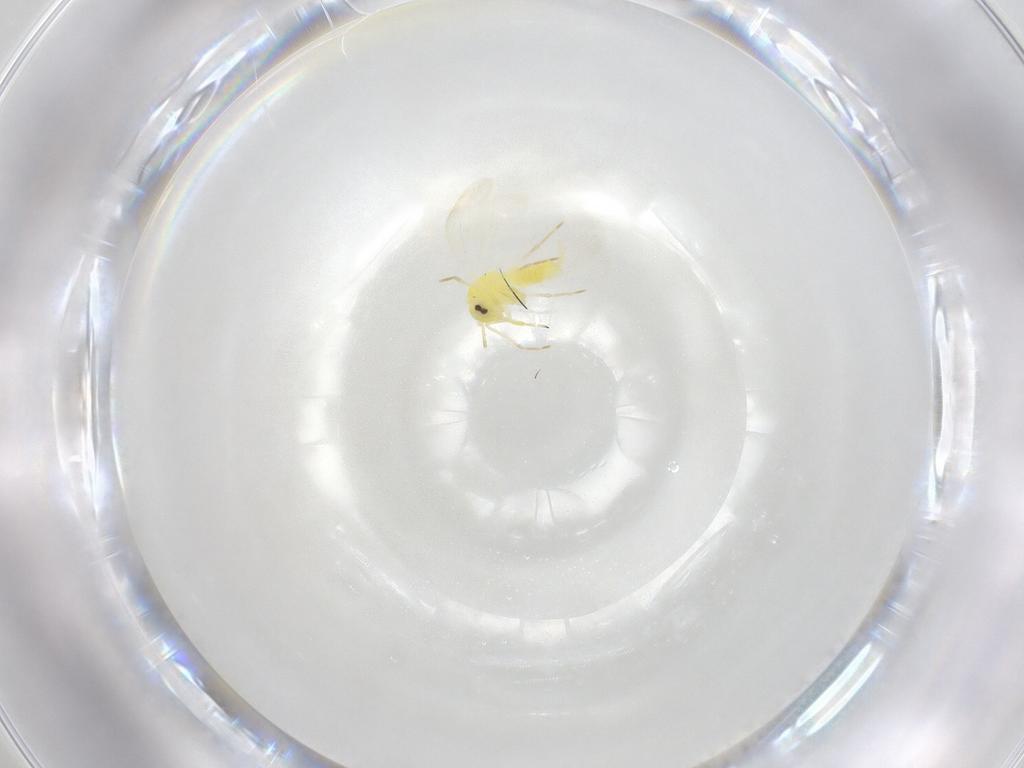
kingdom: Animalia
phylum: Arthropoda
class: Insecta
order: Hemiptera
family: Aleyrodidae
